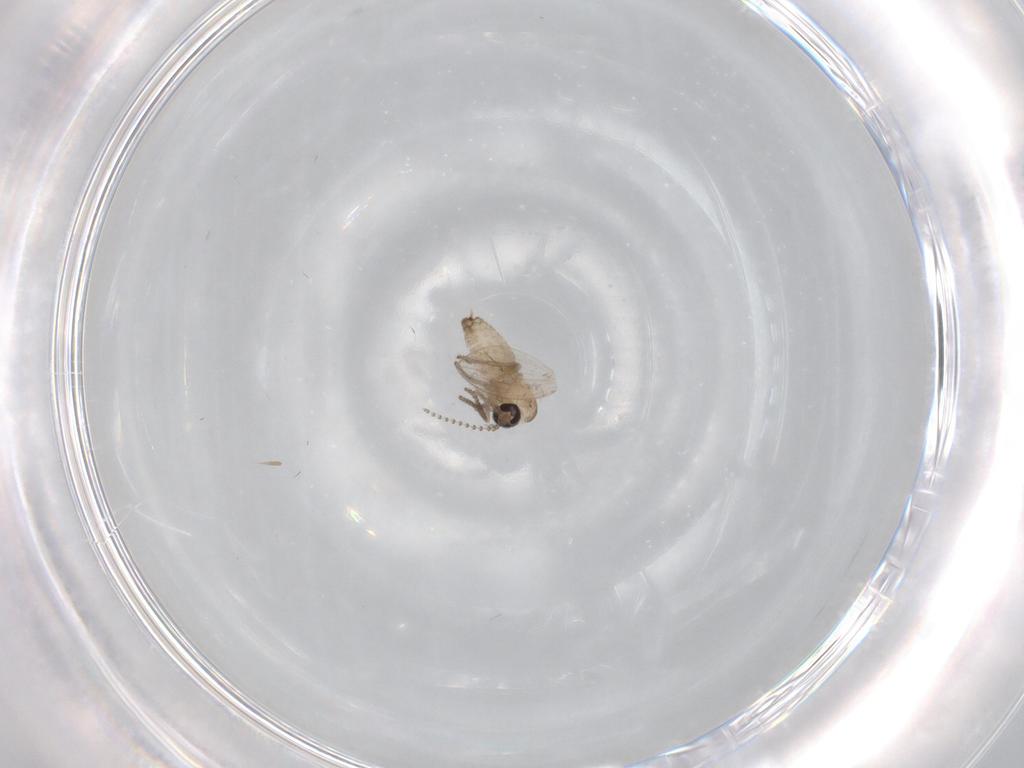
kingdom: Animalia
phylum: Arthropoda
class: Insecta
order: Diptera
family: Psychodidae
